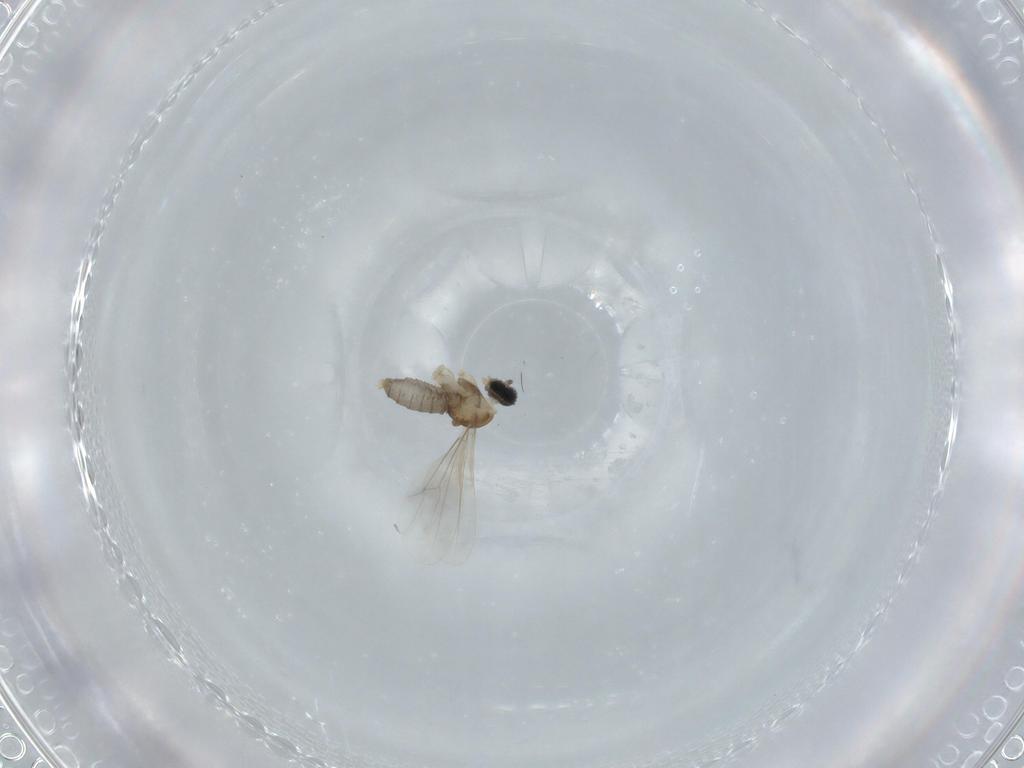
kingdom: Animalia
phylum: Arthropoda
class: Insecta
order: Diptera
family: Cecidomyiidae
